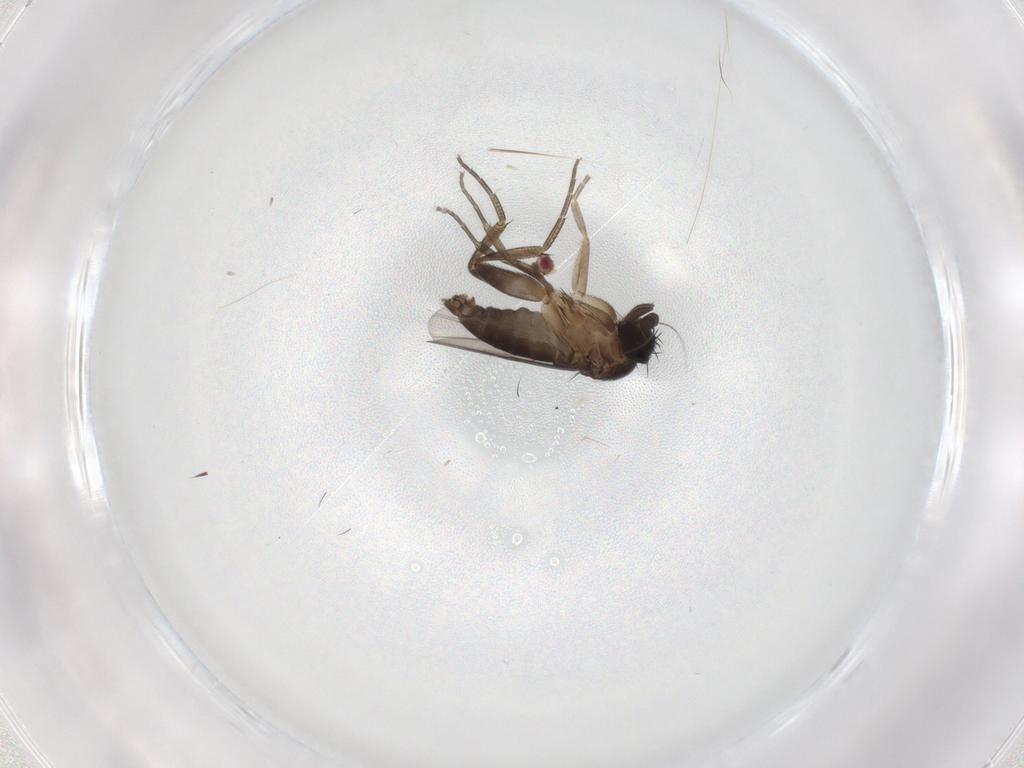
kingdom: Animalia
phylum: Arthropoda
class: Insecta
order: Diptera
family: Phoridae
